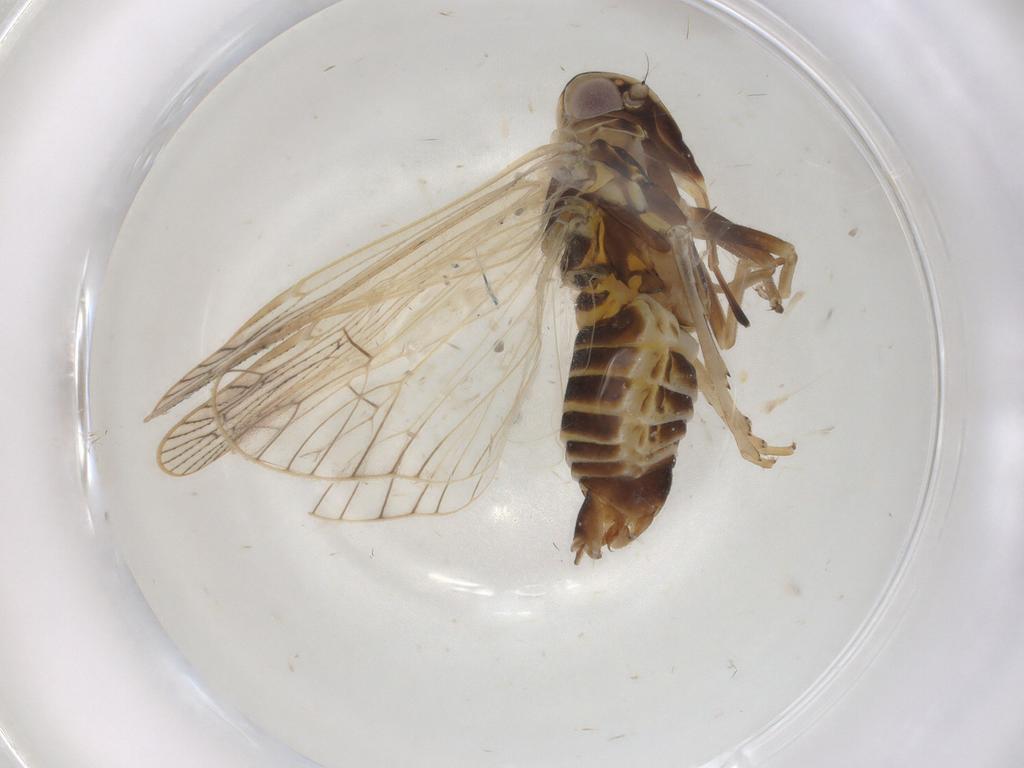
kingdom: Animalia
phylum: Arthropoda
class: Insecta
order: Hemiptera
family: Cixiidae
